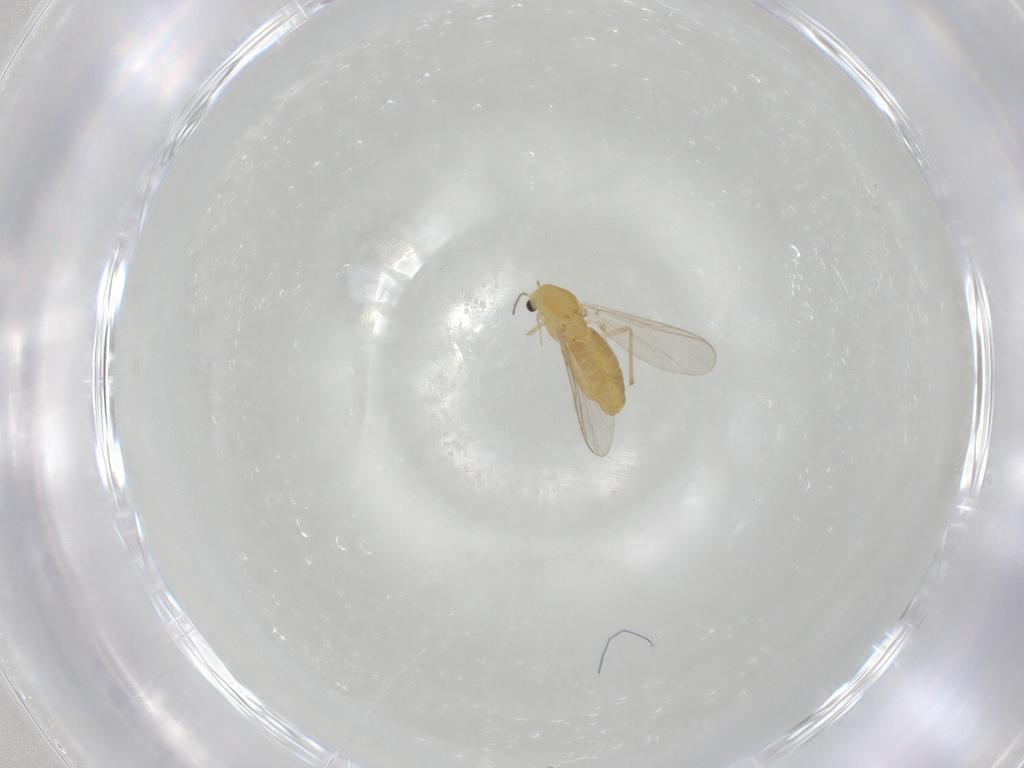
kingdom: Animalia
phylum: Arthropoda
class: Insecta
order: Diptera
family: Chironomidae
